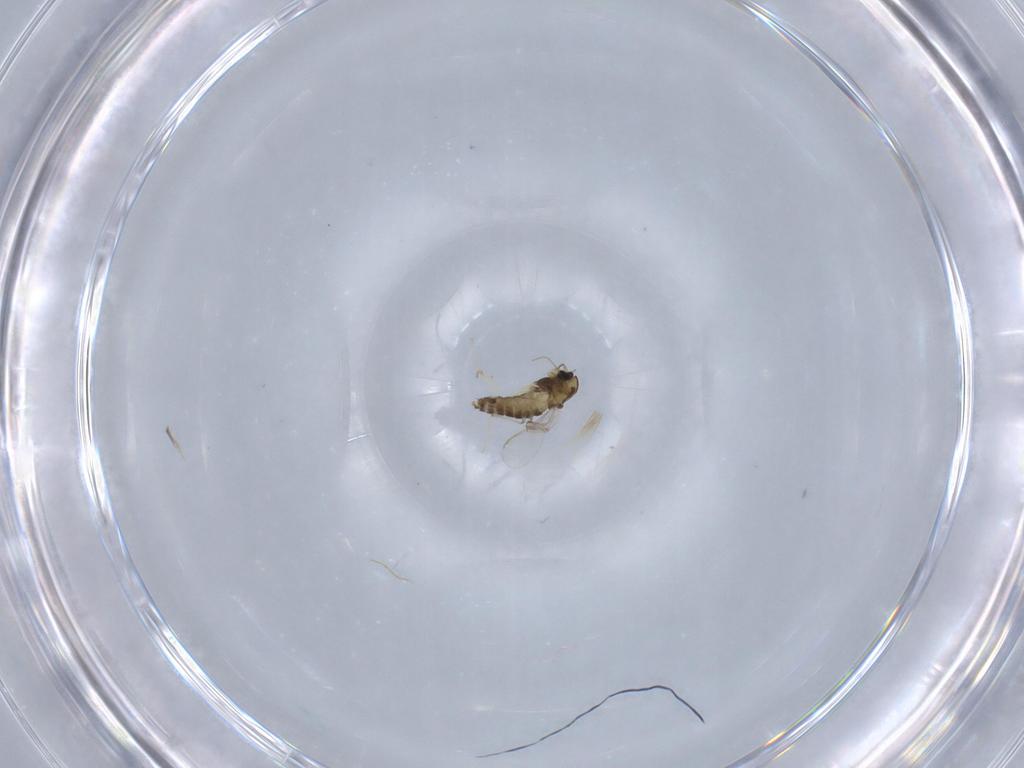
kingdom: Animalia
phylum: Arthropoda
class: Insecta
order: Diptera
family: Chironomidae
